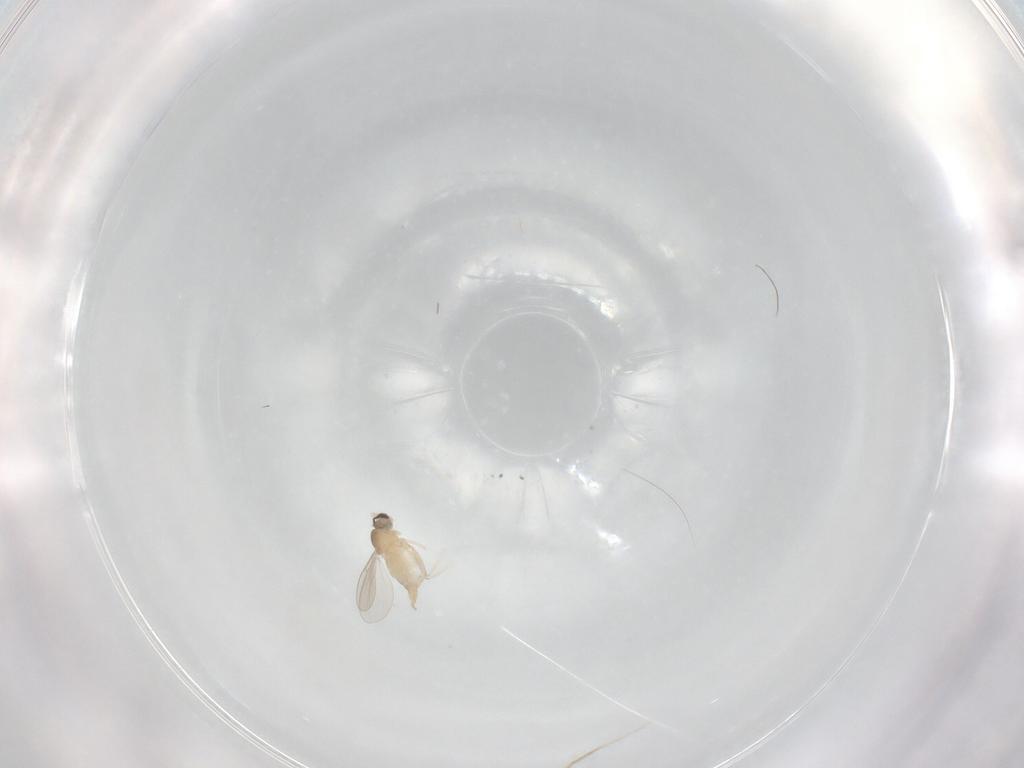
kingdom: Animalia
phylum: Arthropoda
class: Insecta
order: Diptera
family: Cecidomyiidae
